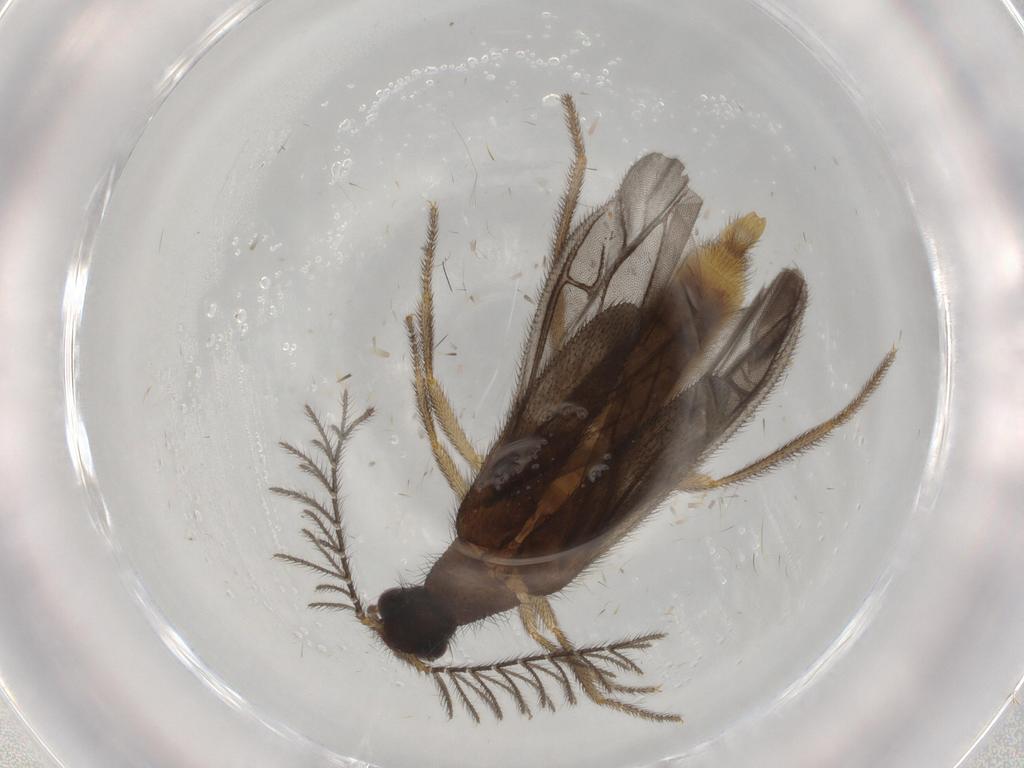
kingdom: Animalia
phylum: Arthropoda
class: Insecta
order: Coleoptera
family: Phengodidae
